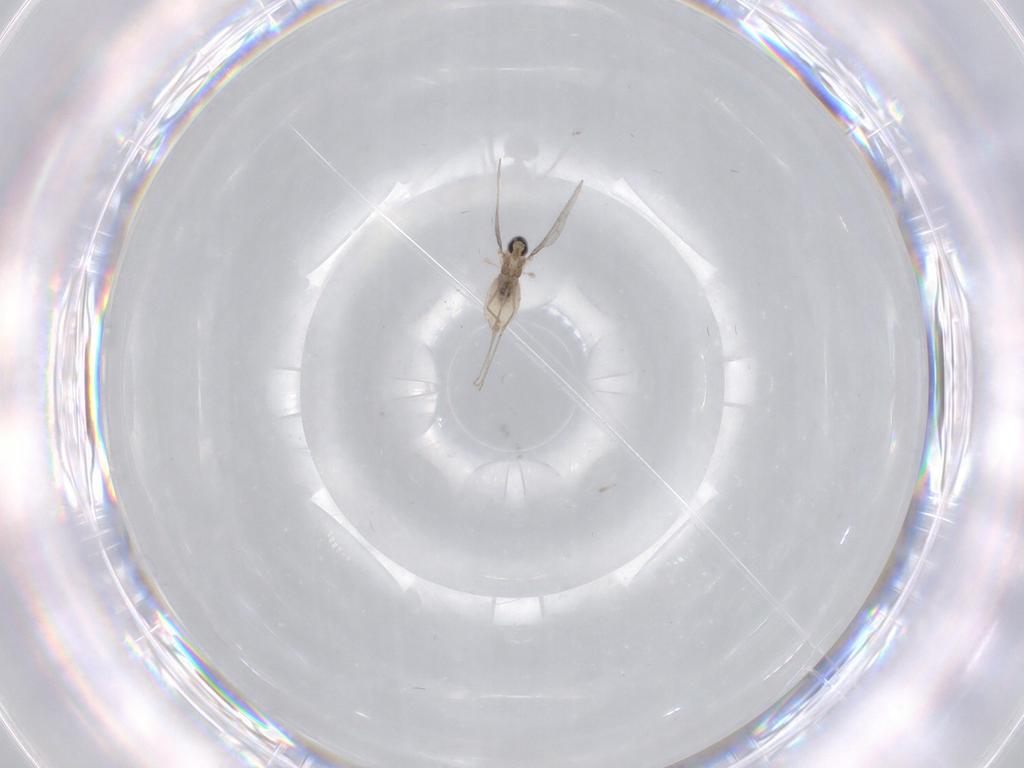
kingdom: Animalia
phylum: Arthropoda
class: Insecta
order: Diptera
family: Cecidomyiidae
